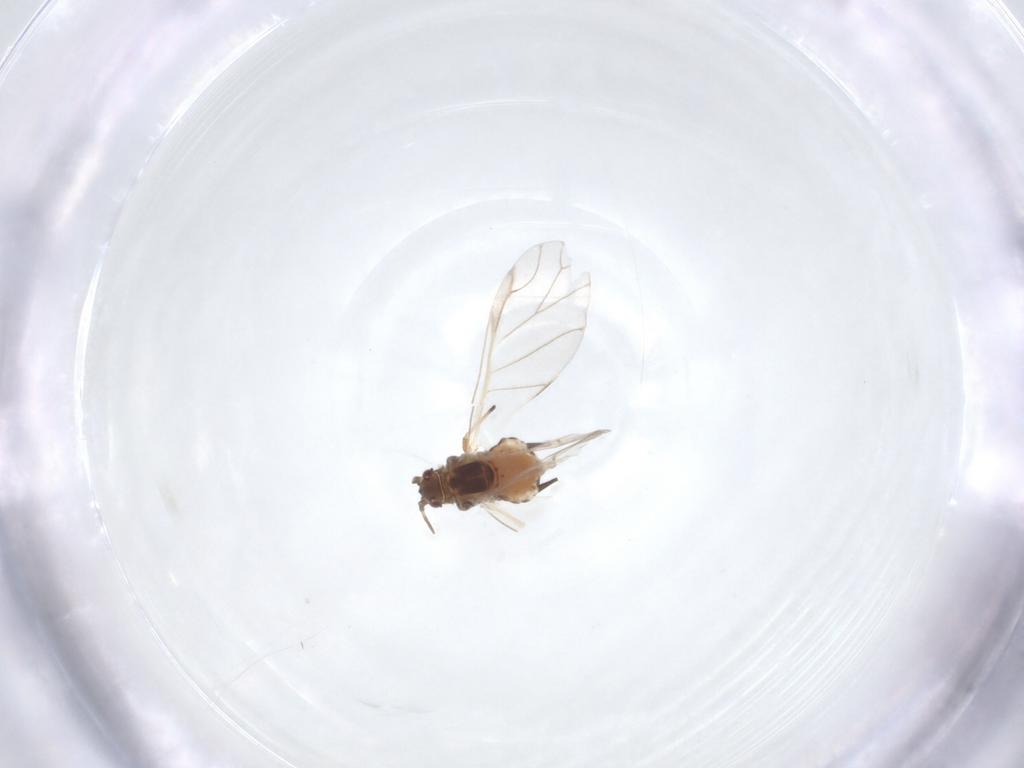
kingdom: Animalia
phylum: Arthropoda
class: Insecta
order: Hemiptera
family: Aphididae
